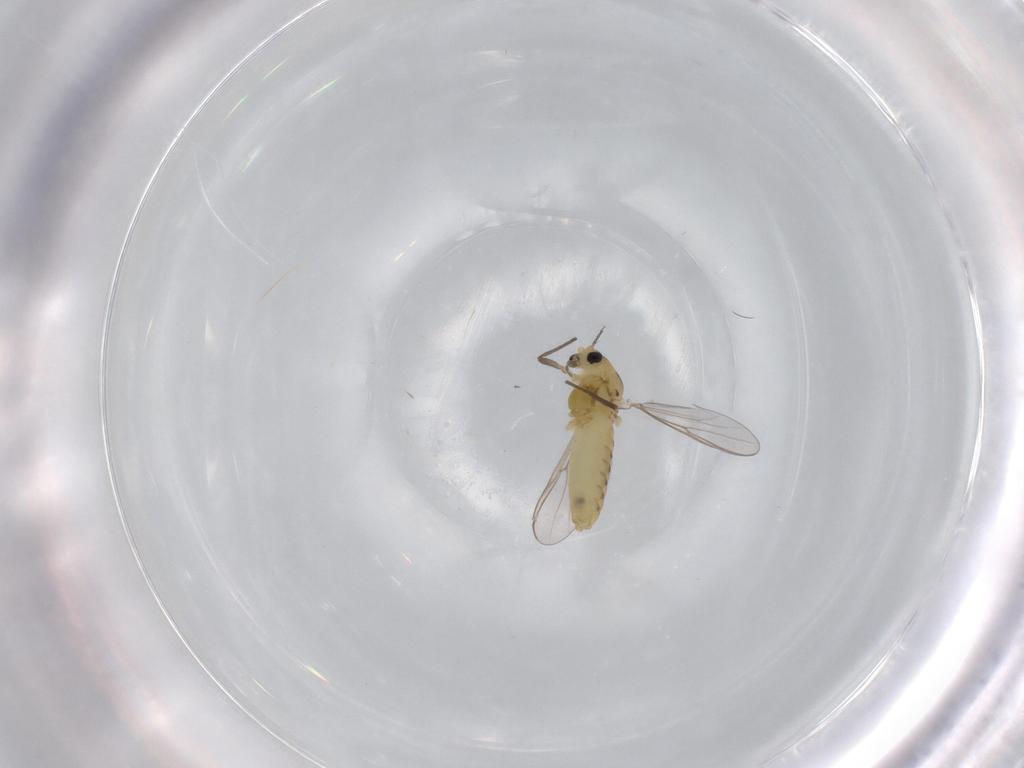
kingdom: Animalia
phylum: Arthropoda
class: Insecta
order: Diptera
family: Chironomidae
